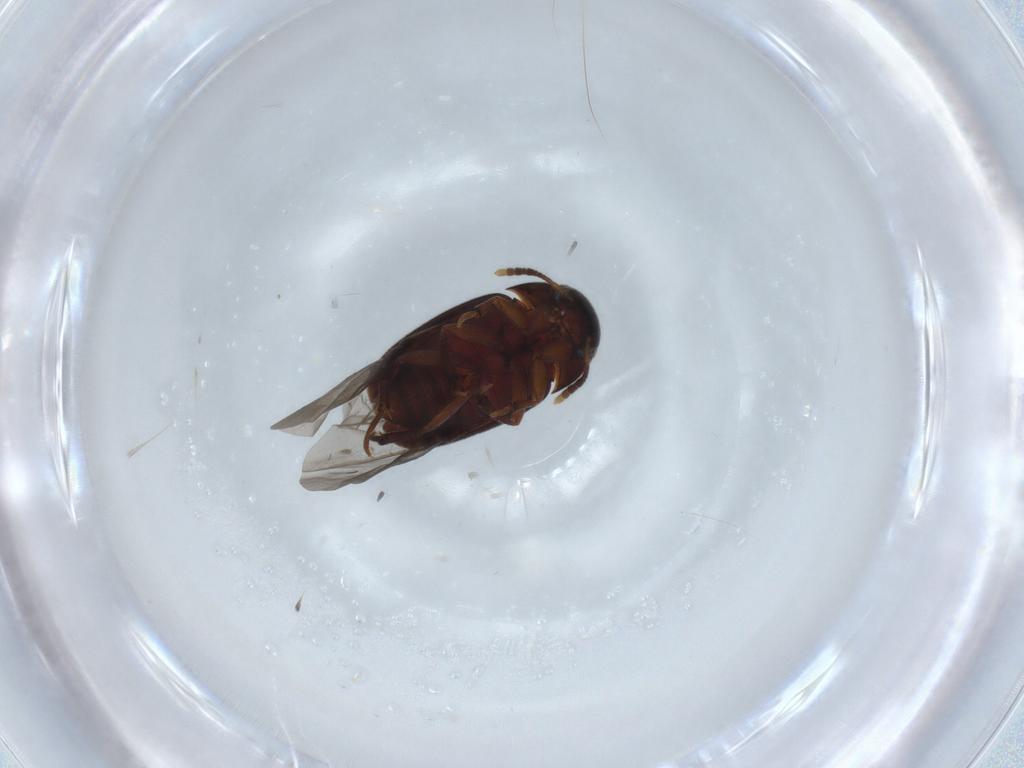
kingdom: Animalia
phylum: Arthropoda
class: Insecta
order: Coleoptera
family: Leiodidae
